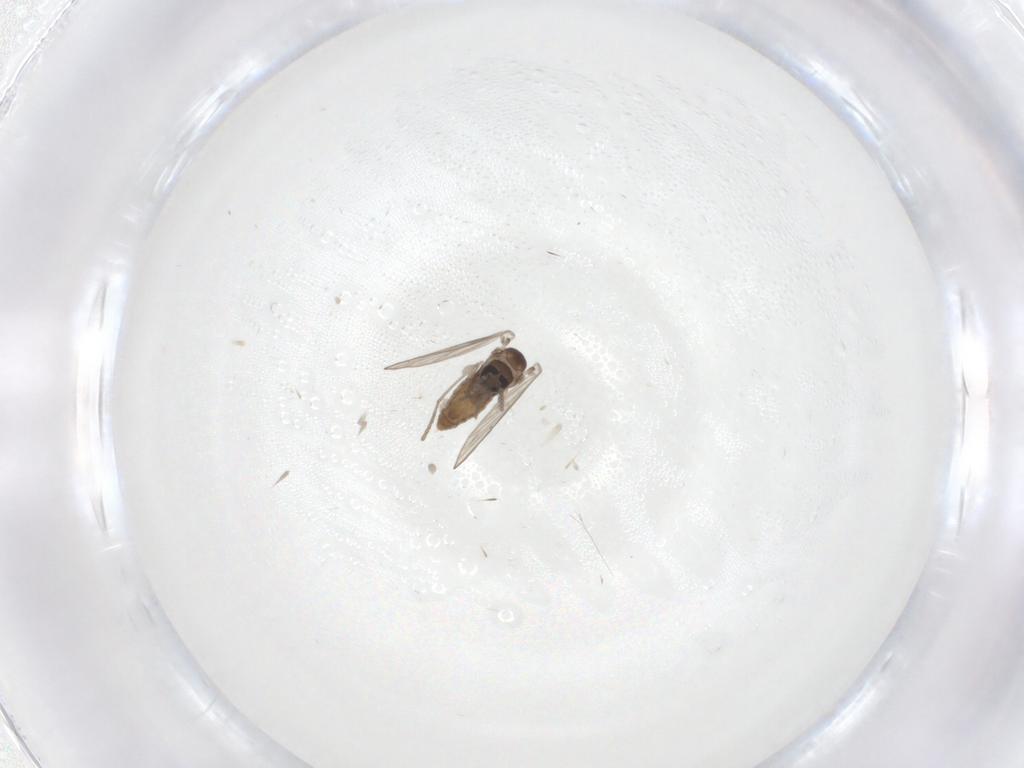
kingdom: Animalia
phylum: Arthropoda
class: Insecta
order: Diptera
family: Psychodidae
